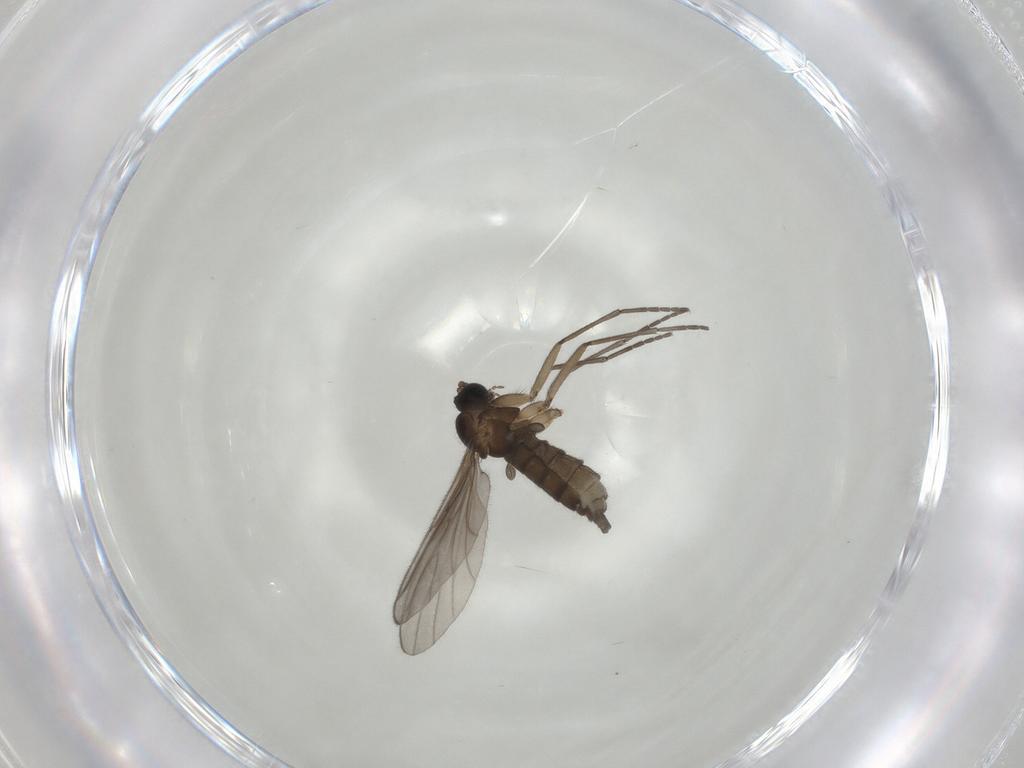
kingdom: Animalia
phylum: Arthropoda
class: Insecta
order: Diptera
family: Sciaridae
